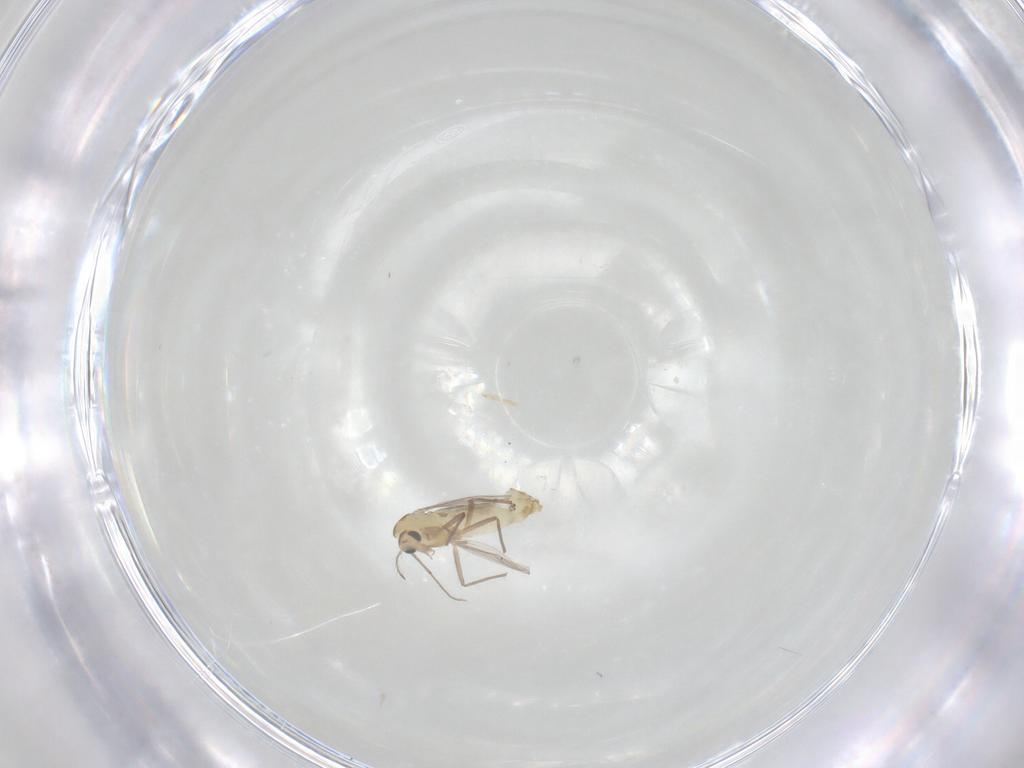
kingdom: Animalia
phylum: Arthropoda
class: Insecta
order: Diptera
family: Chironomidae
